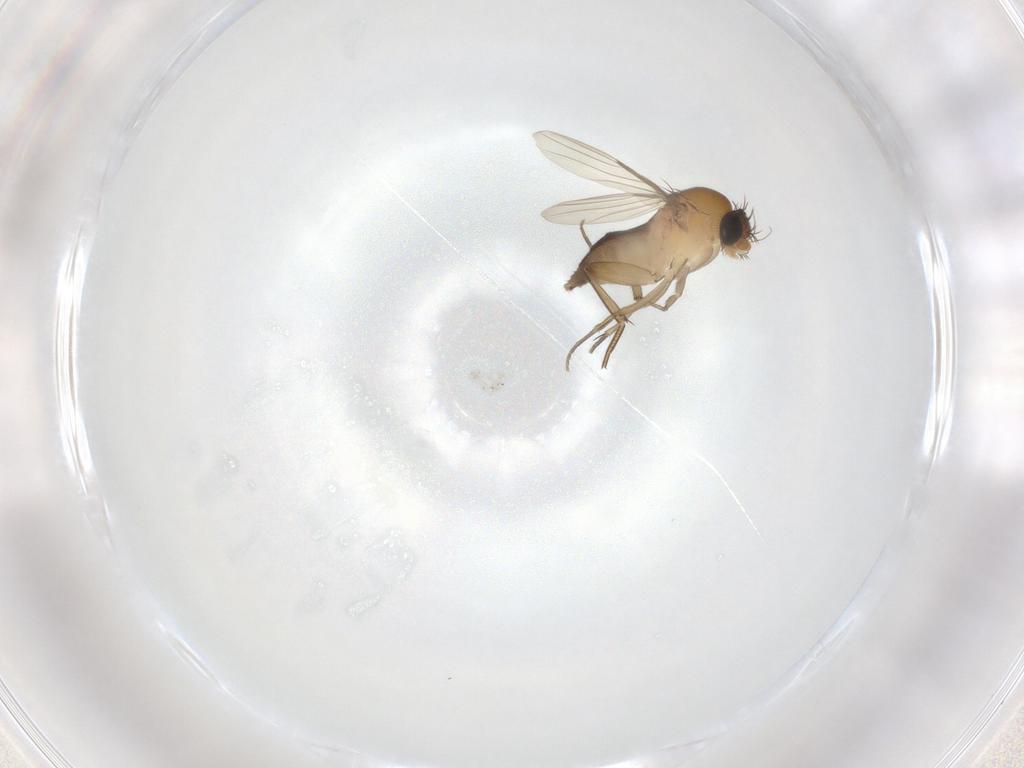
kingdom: Animalia
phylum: Arthropoda
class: Insecta
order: Diptera
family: Phoridae
